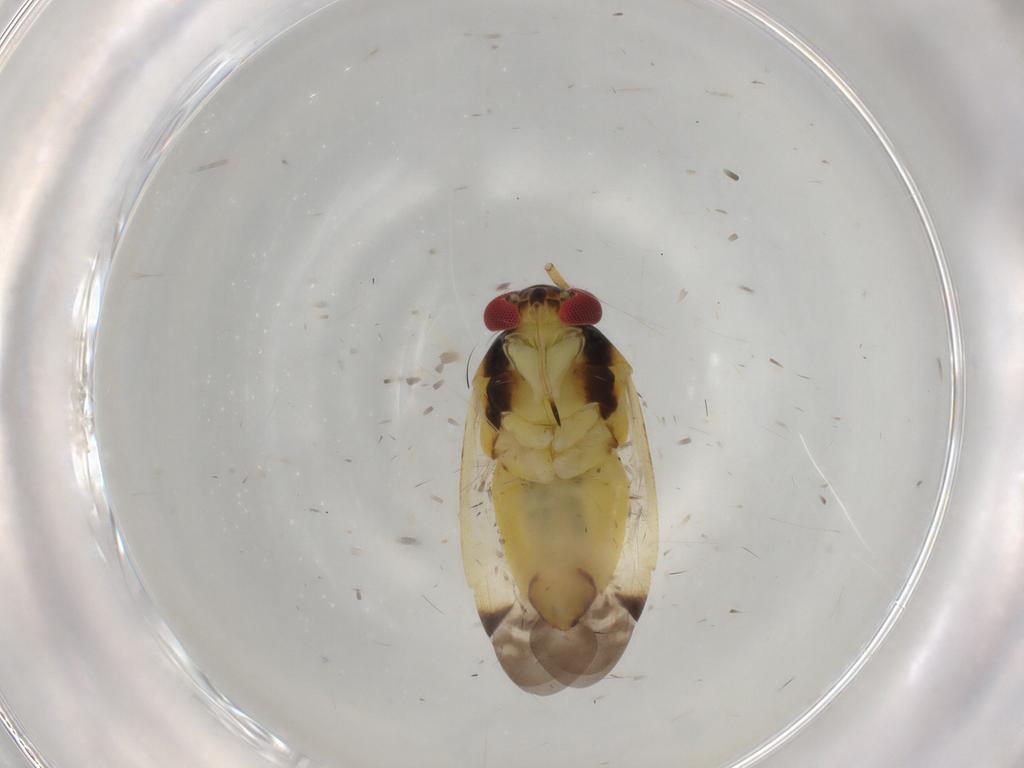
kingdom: Animalia
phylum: Arthropoda
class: Insecta
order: Hemiptera
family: Miridae
